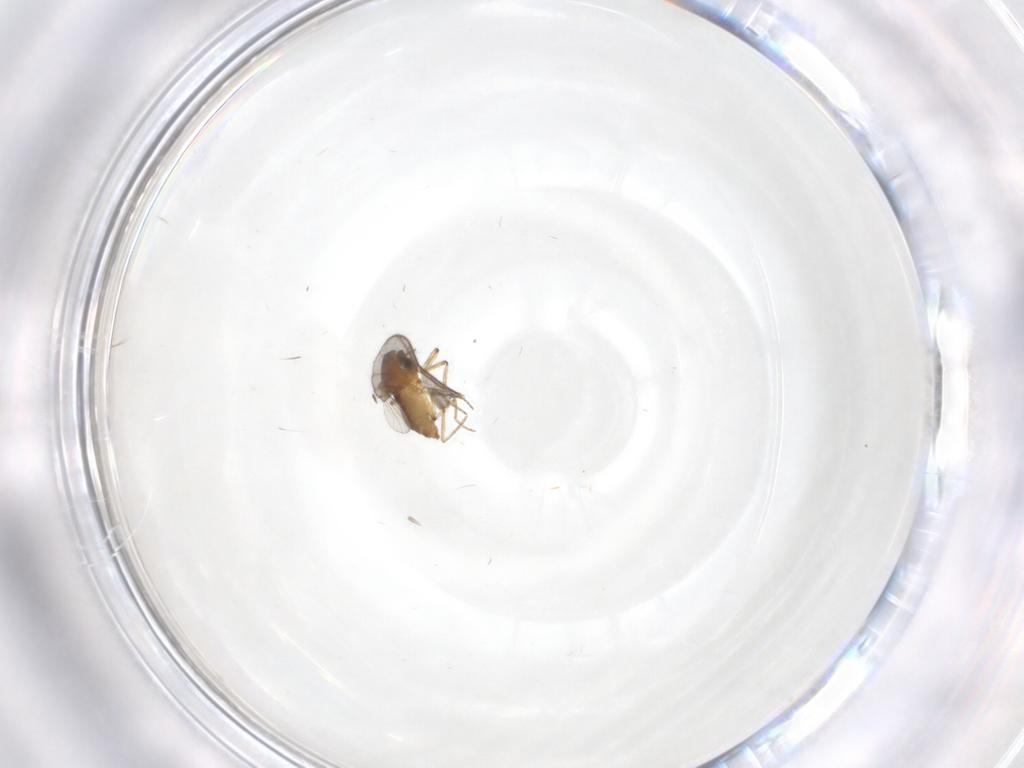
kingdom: Animalia
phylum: Arthropoda
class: Insecta
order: Diptera
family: Sciaridae
